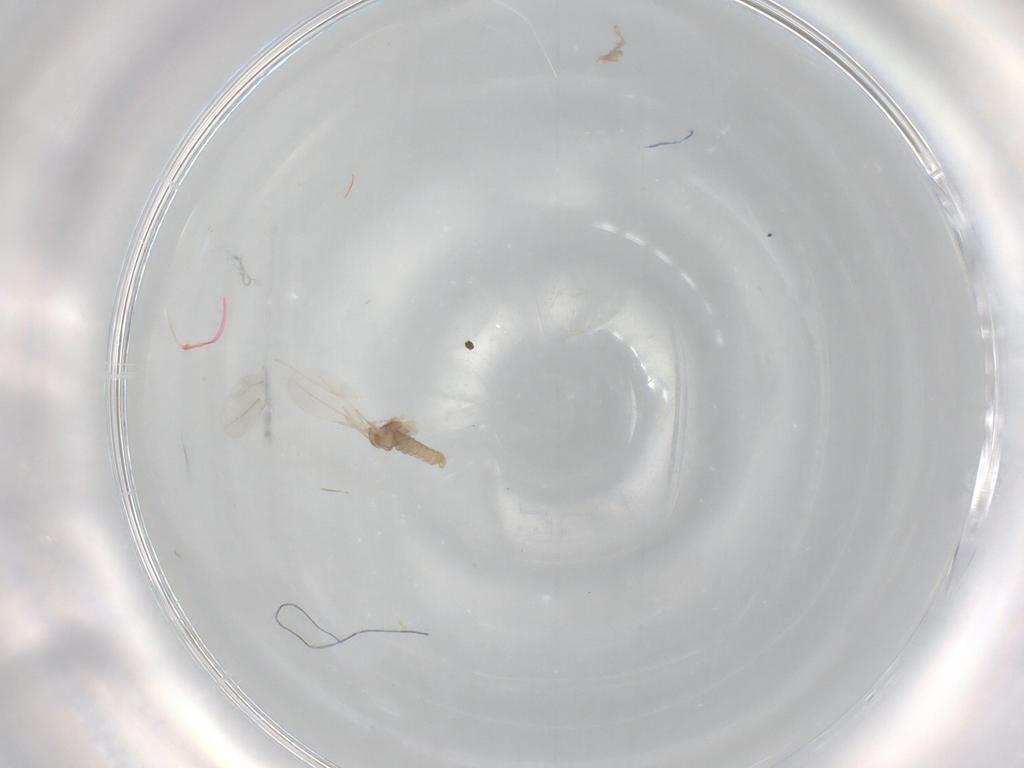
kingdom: Animalia
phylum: Arthropoda
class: Insecta
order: Diptera
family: Cecidomyiidae
